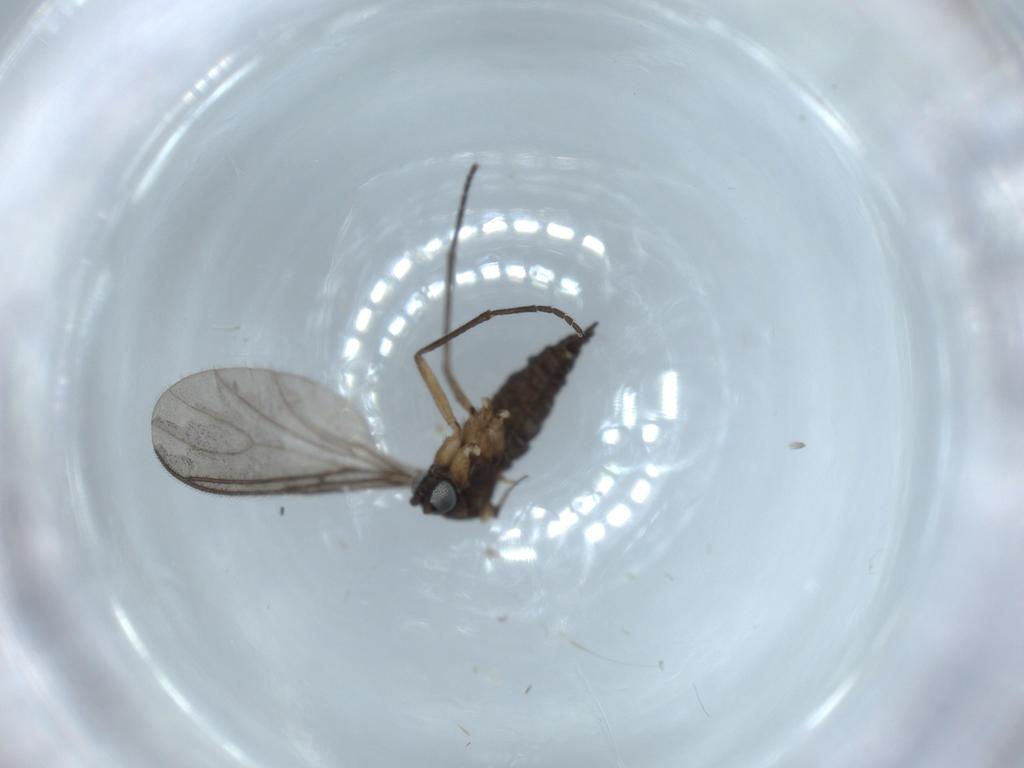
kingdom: Animalia
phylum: Arthropoda
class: Insecta
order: Diptera
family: Sciaridae
